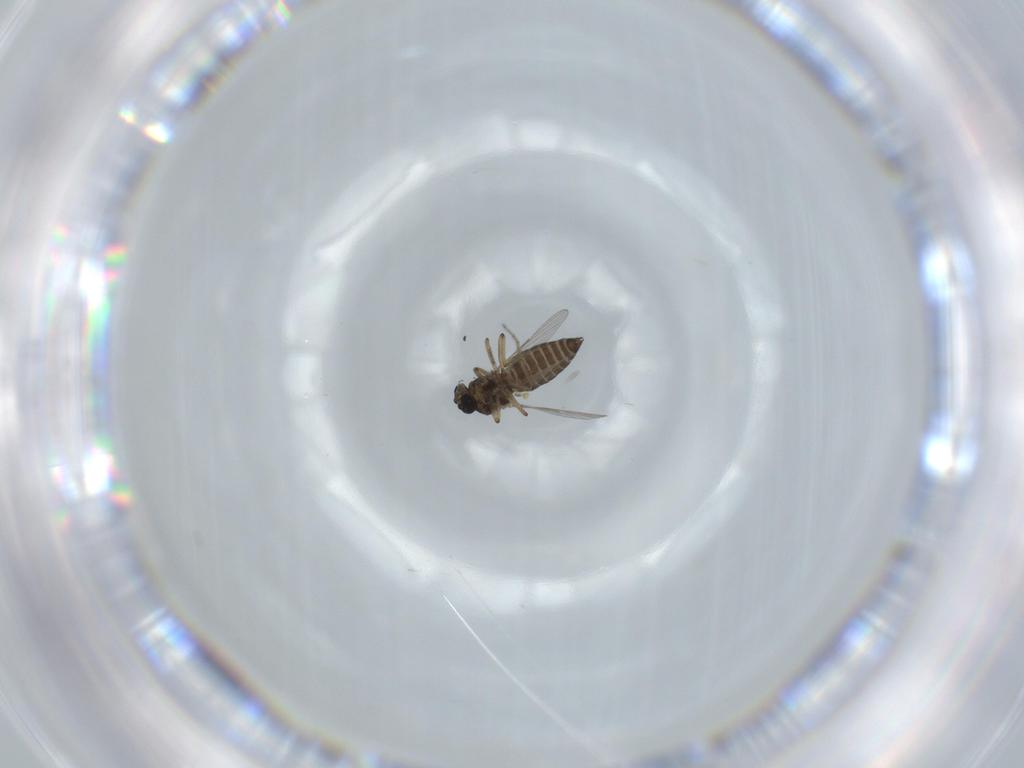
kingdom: Animalia
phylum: Arthropoda
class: Insecta
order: Diptera
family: Ceratopogonidae
